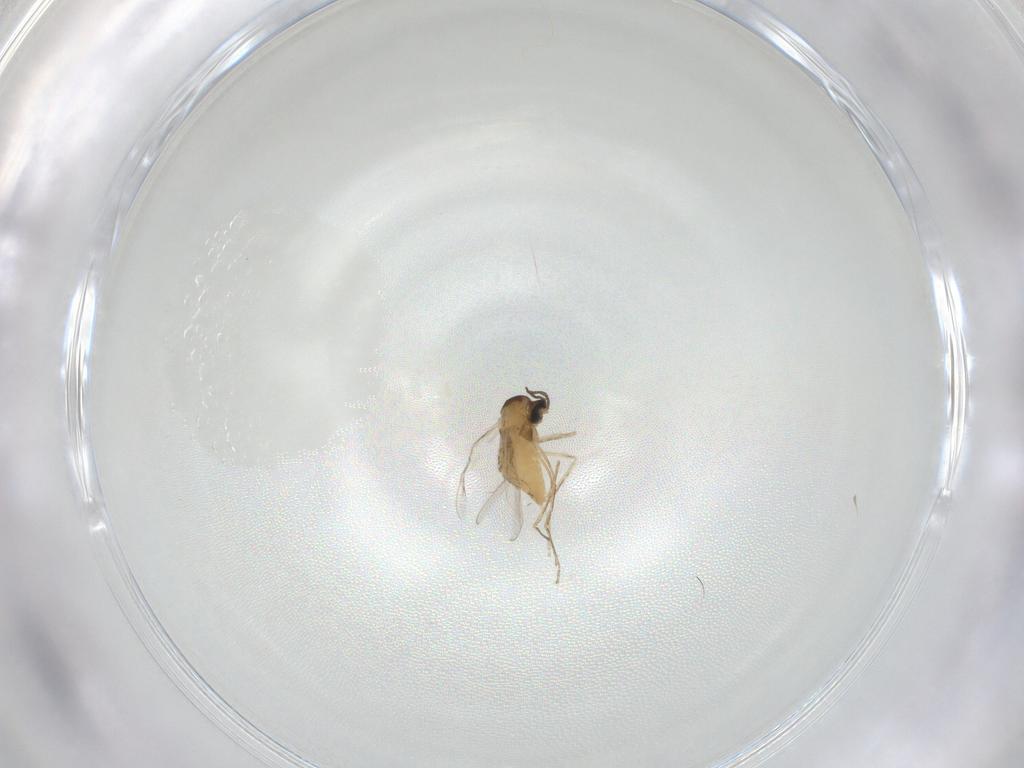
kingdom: Animalia
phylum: Arthropoda
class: Insecta
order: Diptera
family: Cecidomyiidae
